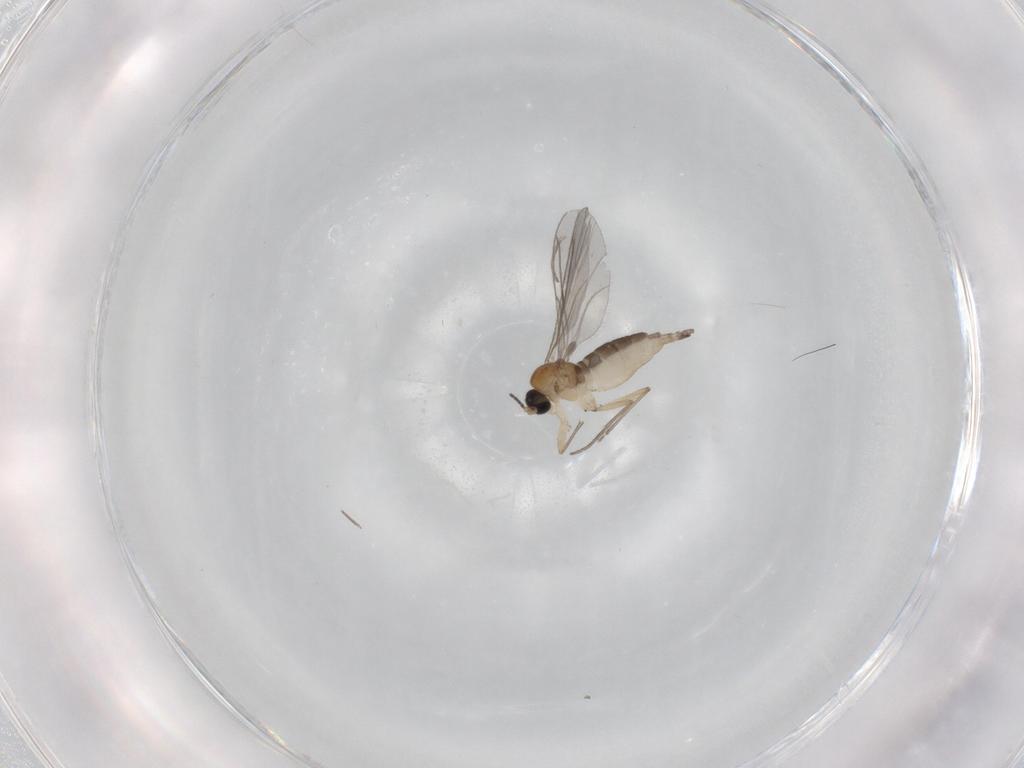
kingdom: Animalia
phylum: Arthropoda
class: Insecta
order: Diptera
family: Sciaridae
